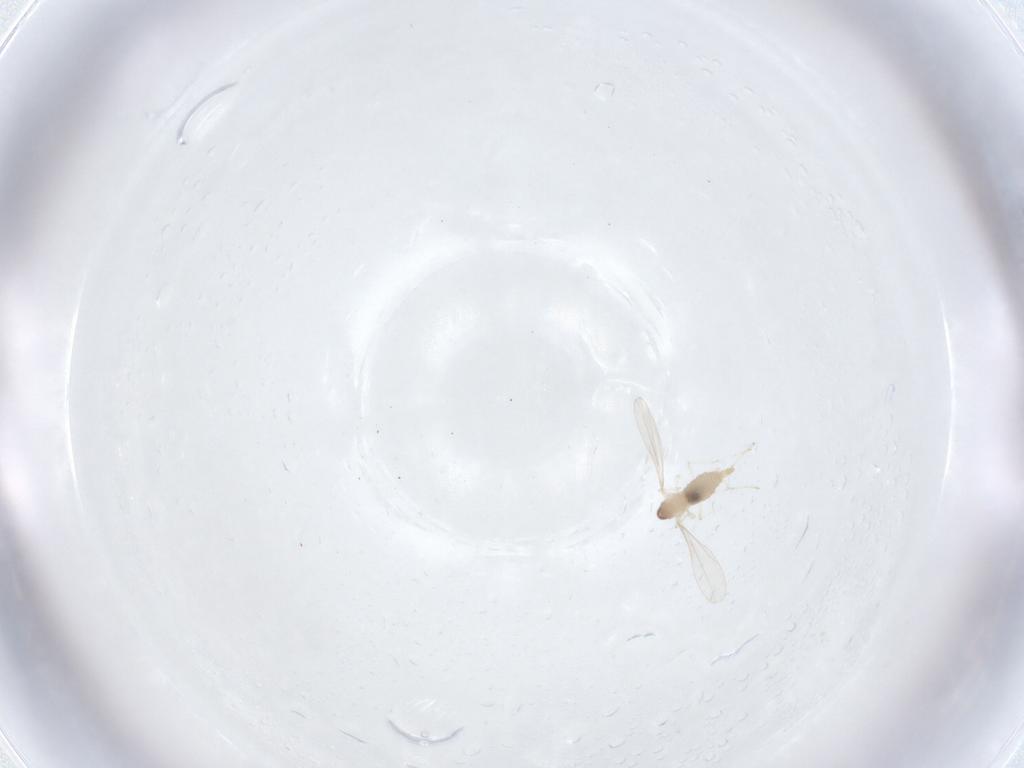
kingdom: Animalia
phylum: Arthropoda
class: Insecta
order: Diptera
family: Cecidomyiidae
